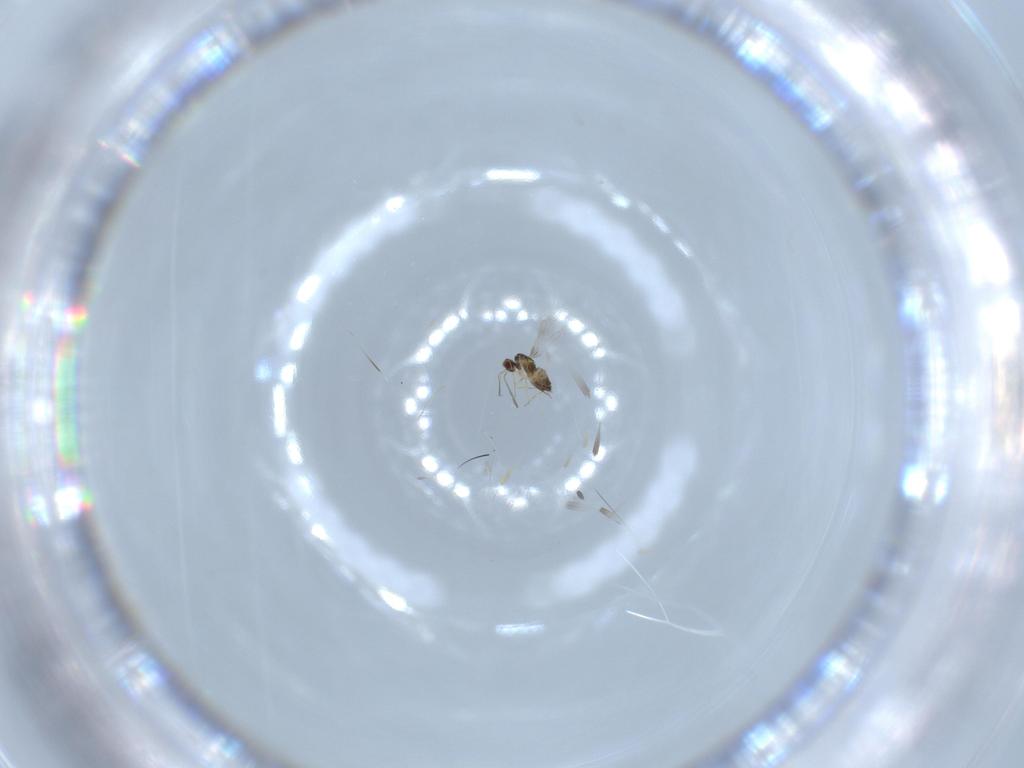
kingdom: Animalia
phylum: Arthropoda
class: Insecta
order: Hymenoptera
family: Mymaridae
